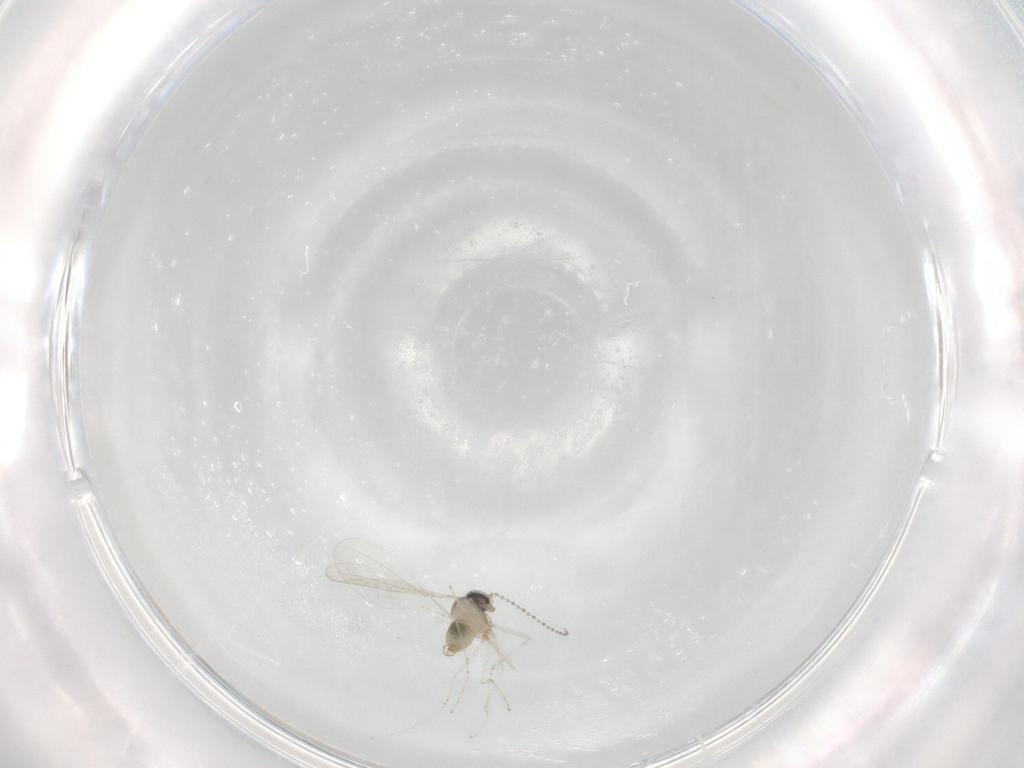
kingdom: Animalia
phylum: Arthropoda
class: Insecta
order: Diptera
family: Cecidomyiidae
